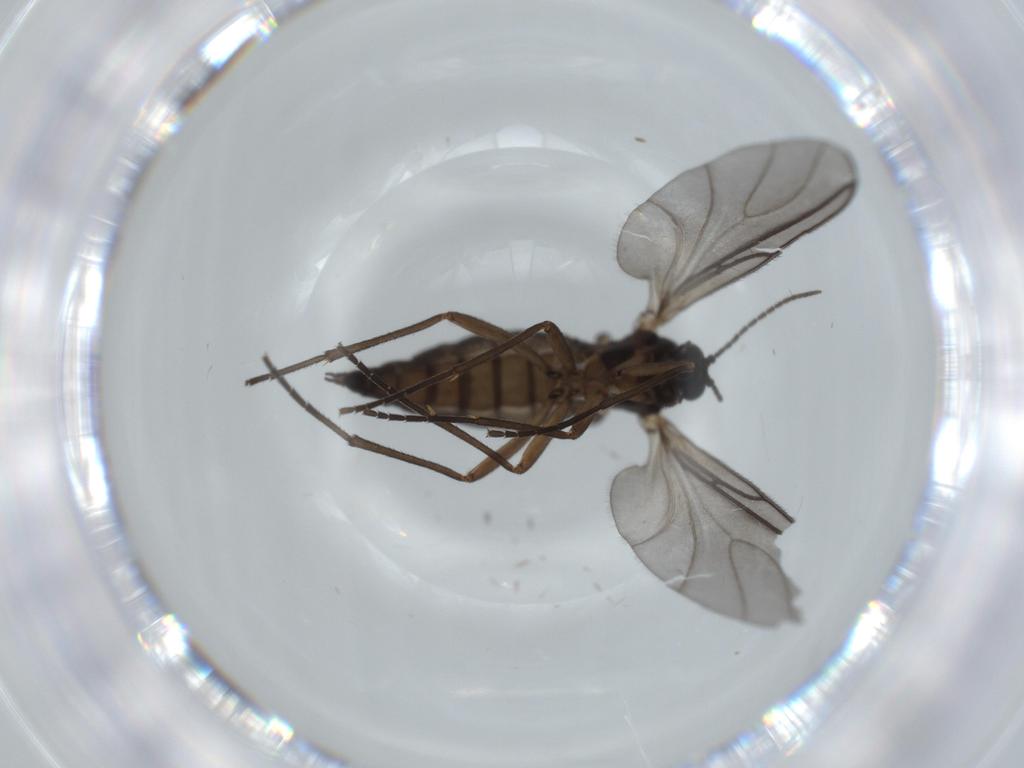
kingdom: Animalia
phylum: Arthropoda
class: Insecta
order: Diptera
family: Sciaridae
